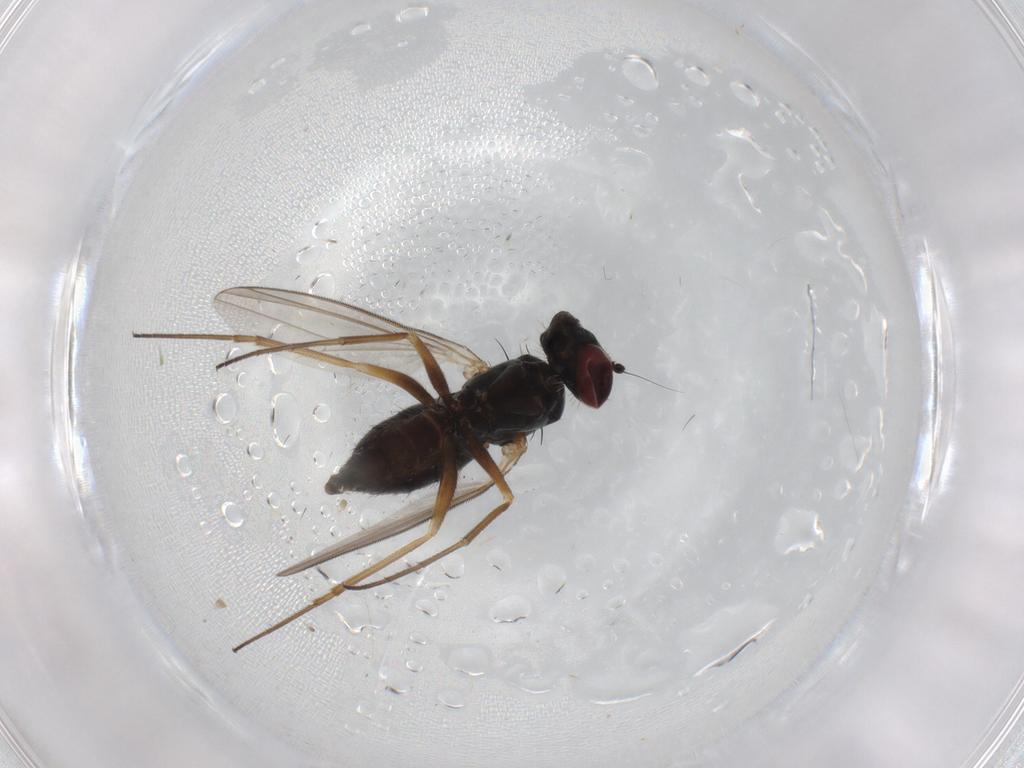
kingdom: Animalia
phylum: Arthropoda
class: Insecta
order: Diptera
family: Dolichopodidae
